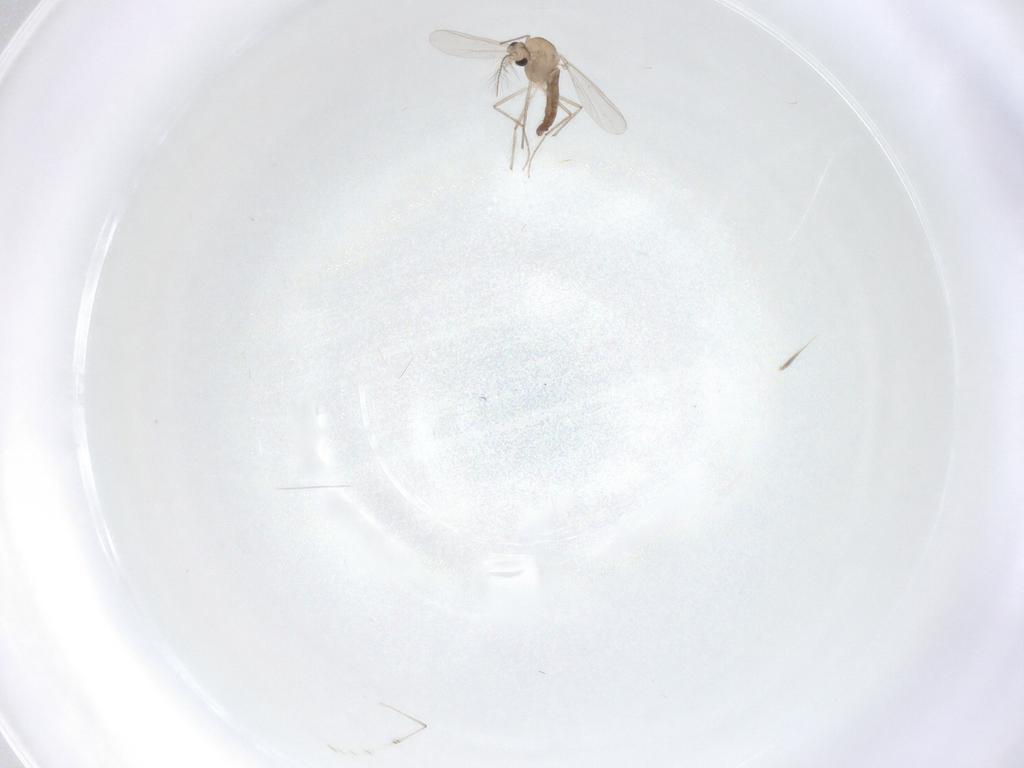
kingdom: Animalia
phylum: Arthropoda
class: Insecta
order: Diptera
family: Chironomidae
